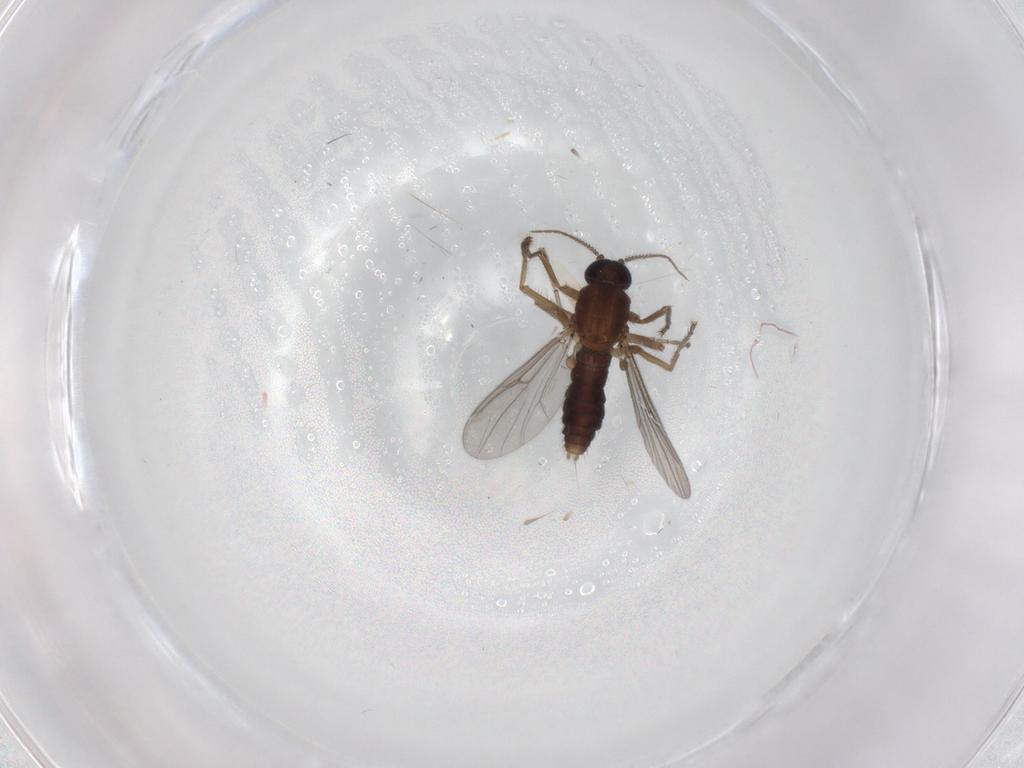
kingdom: Animalia
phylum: Arthropoda
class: Insecta
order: Diptera
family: Ceratopogonidae
